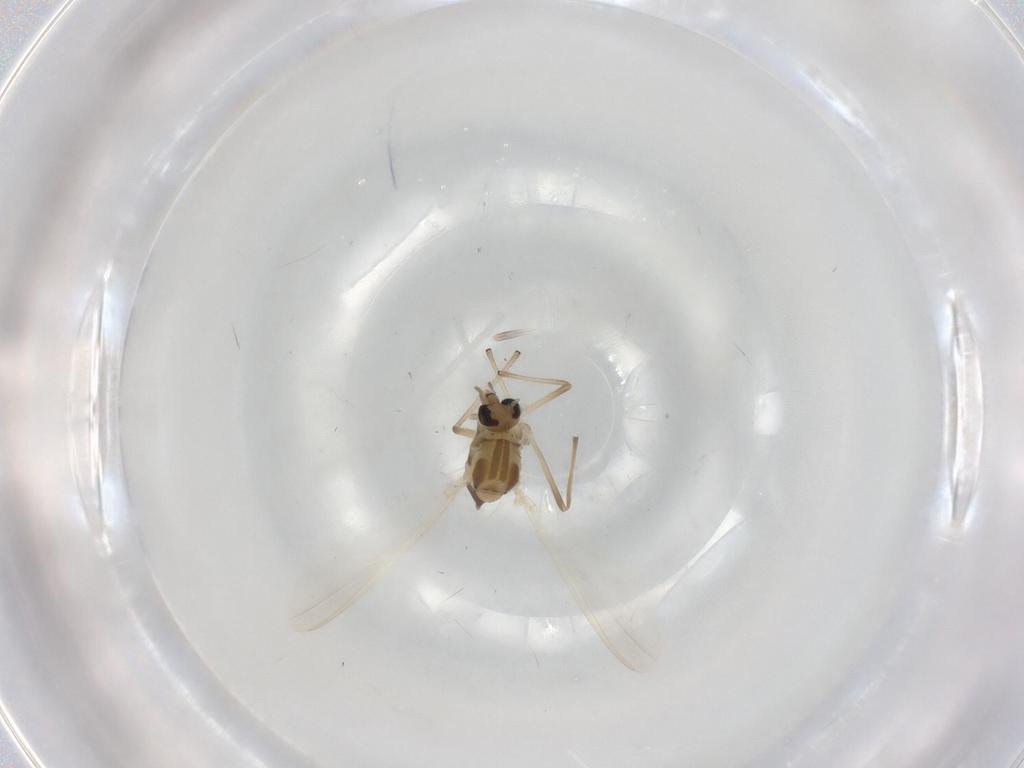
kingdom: Animalia
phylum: Arthropoda
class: Insecta
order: Diptera
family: Chironomidae
